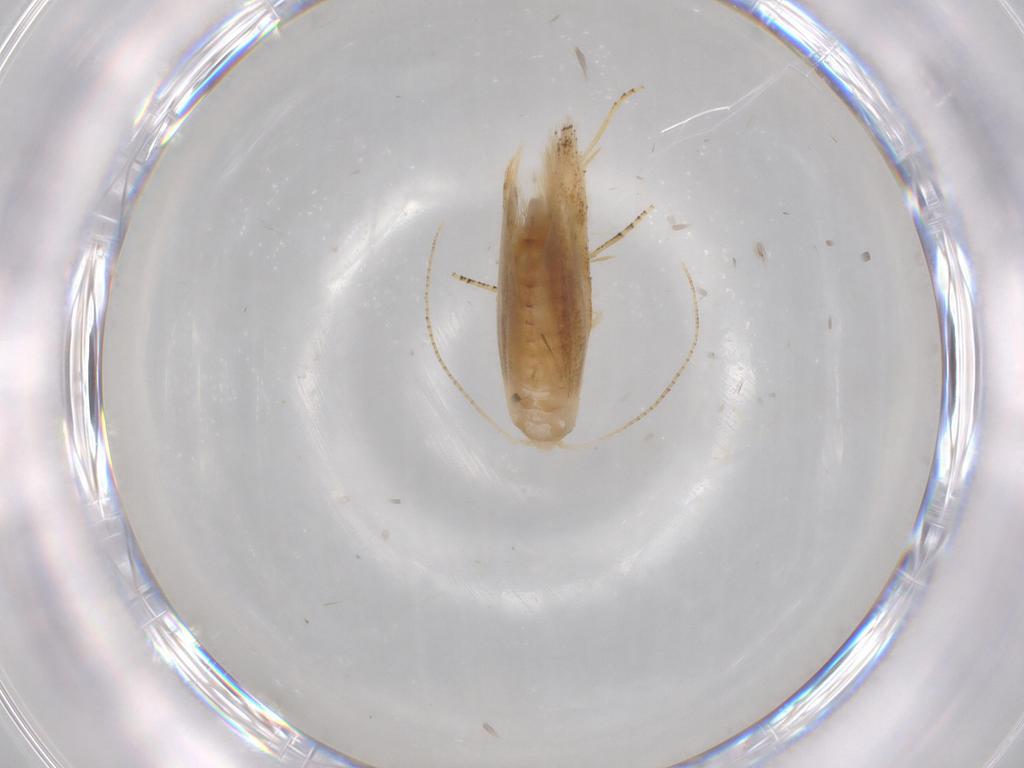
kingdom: Animalia
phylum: Arthropoda
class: Insecta
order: Lepidoptera
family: Bucculatricidae
